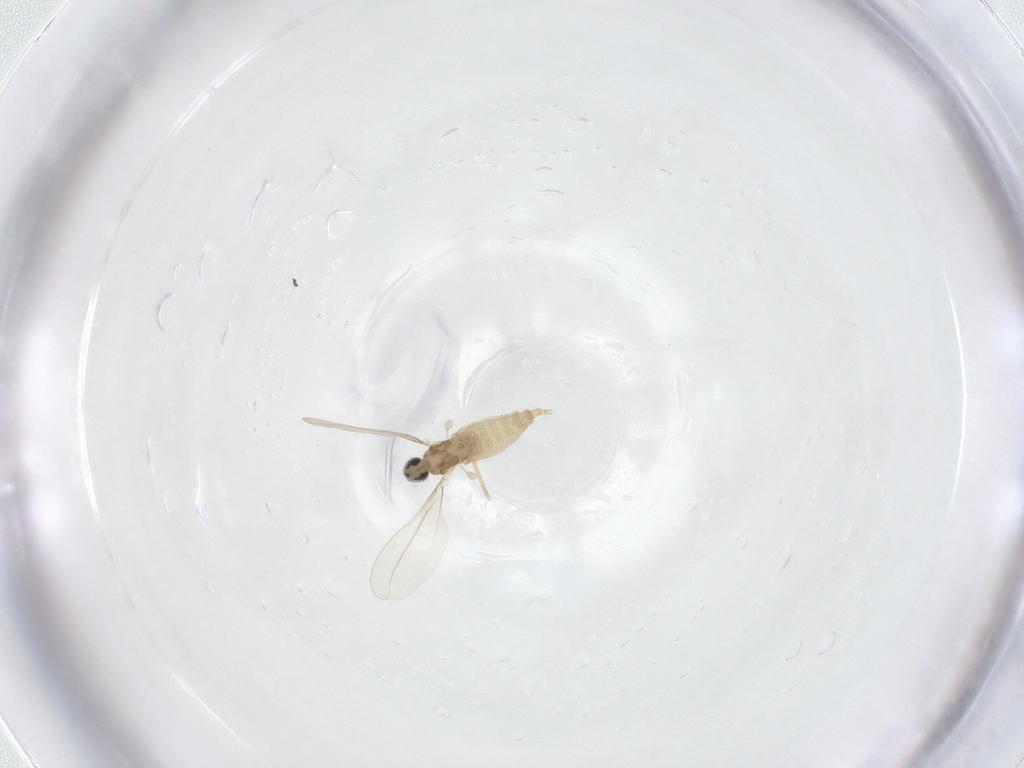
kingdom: Animalia
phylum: Arthropoda
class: Insecta
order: Diptera
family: Cecidomyiidae
